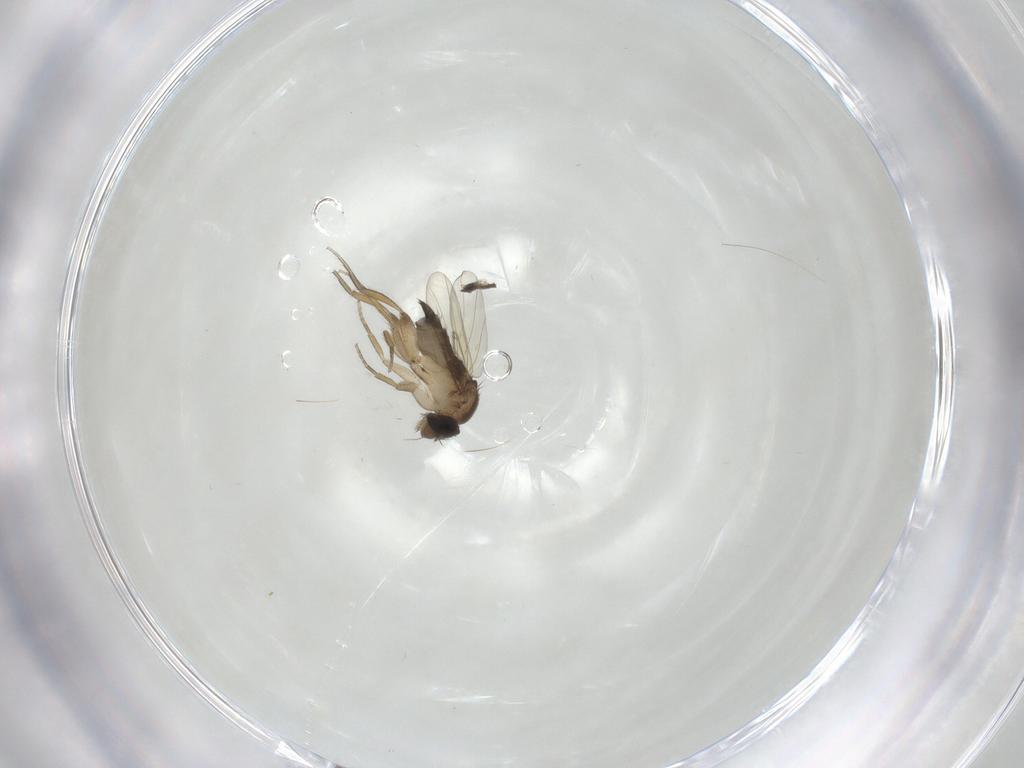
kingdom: Animalia
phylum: Arthropoda
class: Insecta
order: Diptera
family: Phoridae
